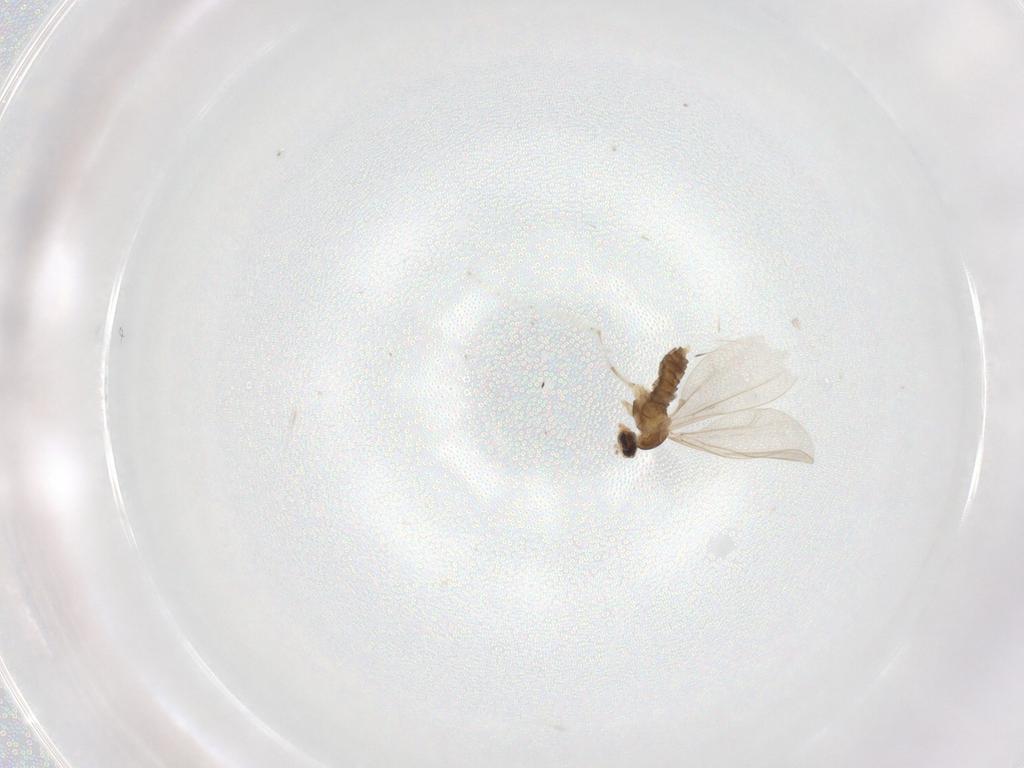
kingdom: Animalia
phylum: Arthropoda
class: Insecta
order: Diptera
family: Cecidomyiidae
